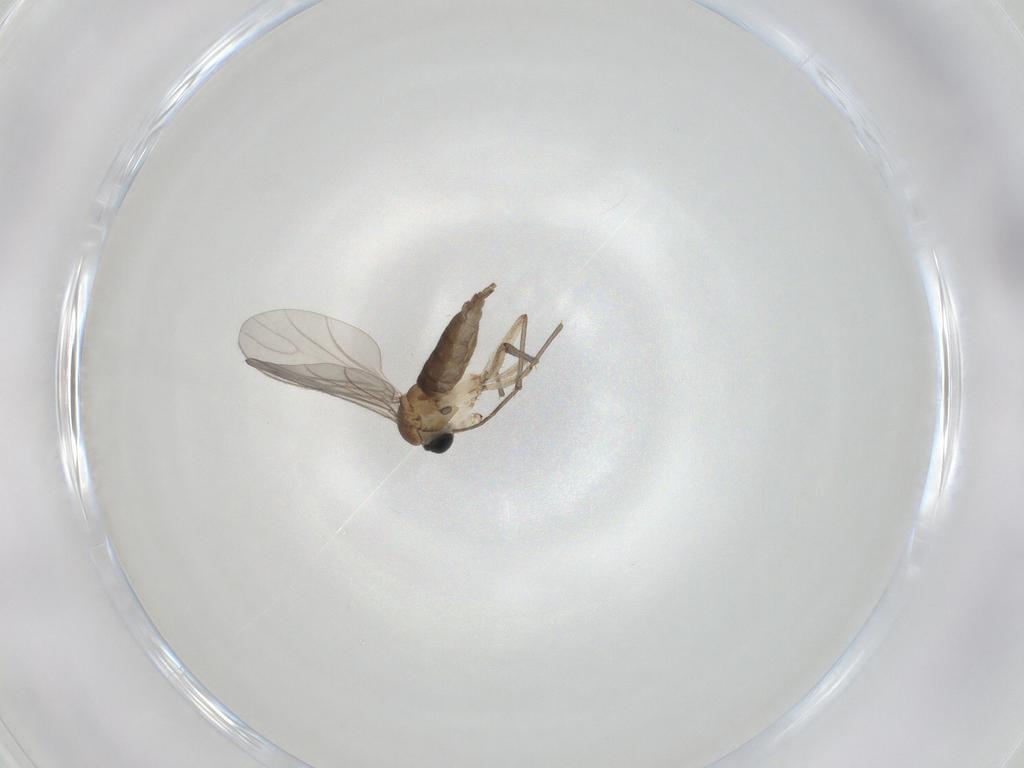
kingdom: Animalia
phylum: Arthropoda
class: Insecta
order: Diptera
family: Sciaridae
